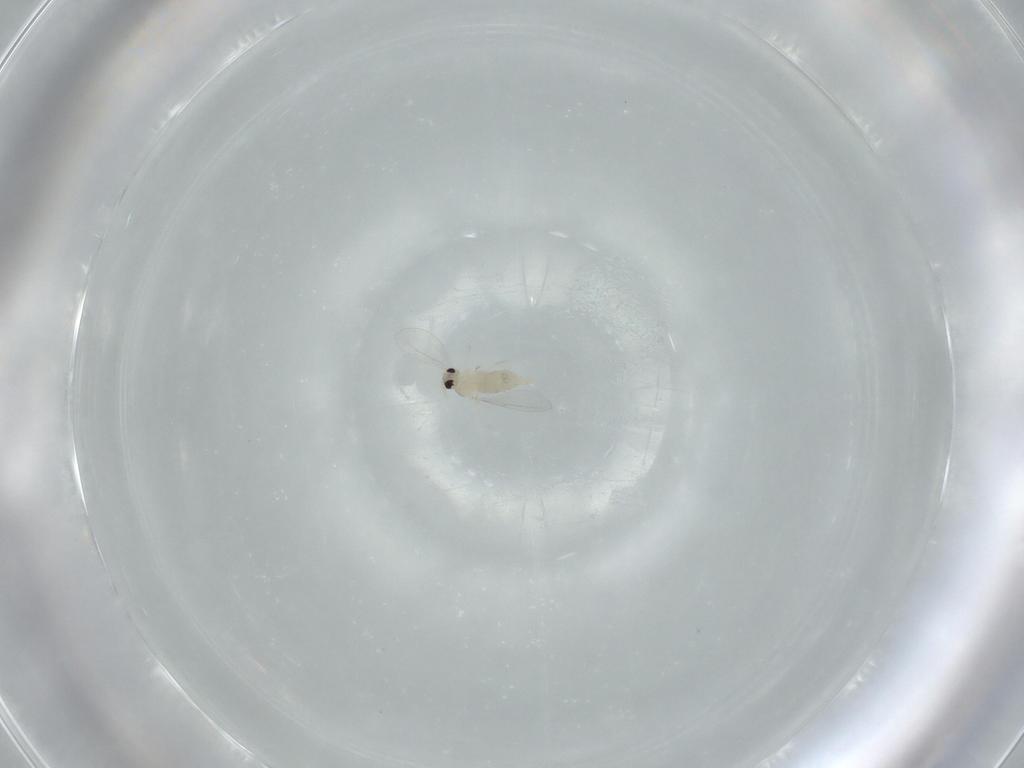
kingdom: Animalia
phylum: Arthropoda
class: Insecta
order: Diptera
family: Cecidomyiidae
